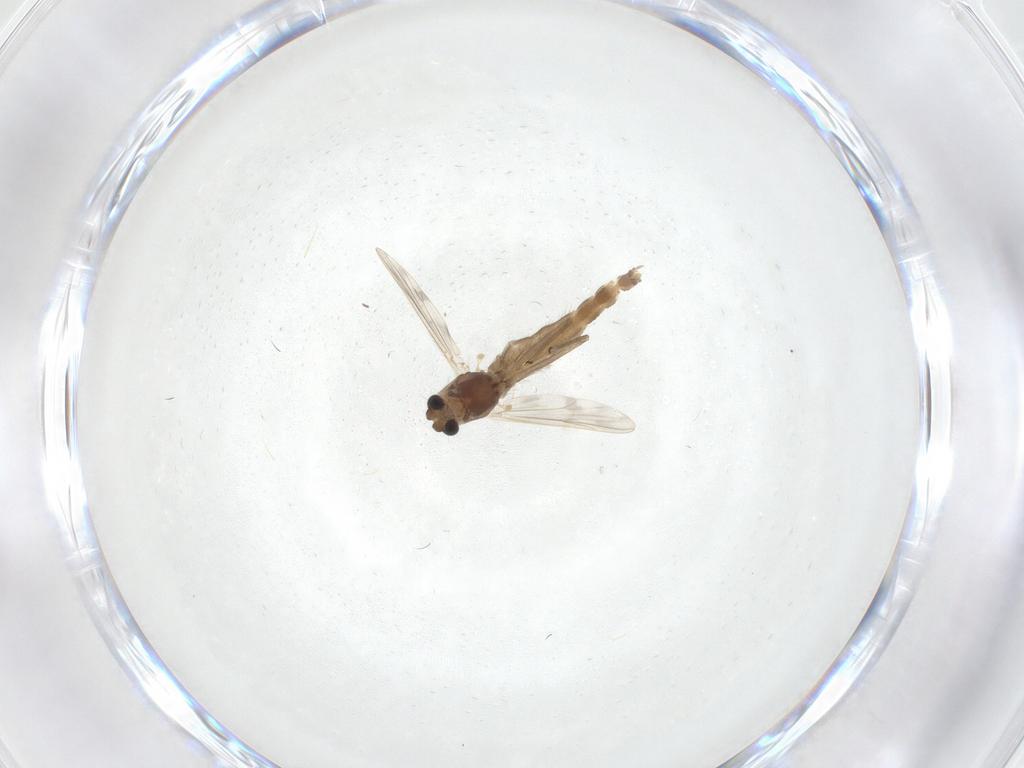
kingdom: Animalia
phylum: Arthropoda
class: Insecta
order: Diptera
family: Chironomidae
